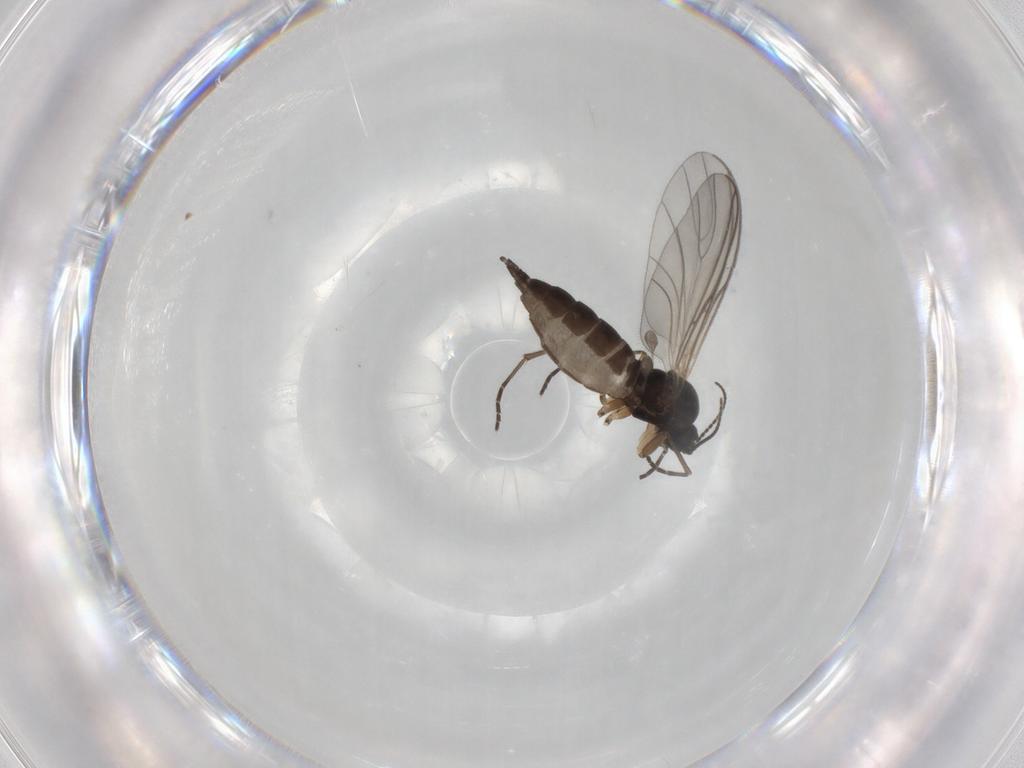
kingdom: Animalia
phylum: Arthropoda
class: Insecta
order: Diptera
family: Sciaridae
